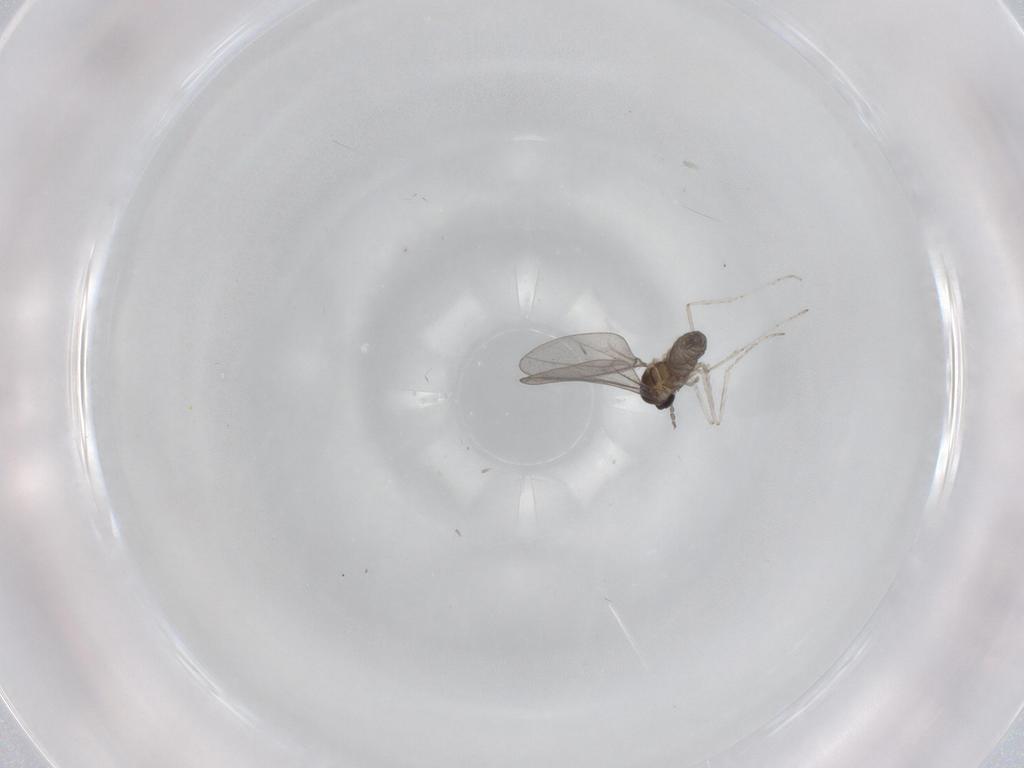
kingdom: Animalia
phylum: Arthropoda
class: Insecta
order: Diptera
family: Cecidomyiidae
